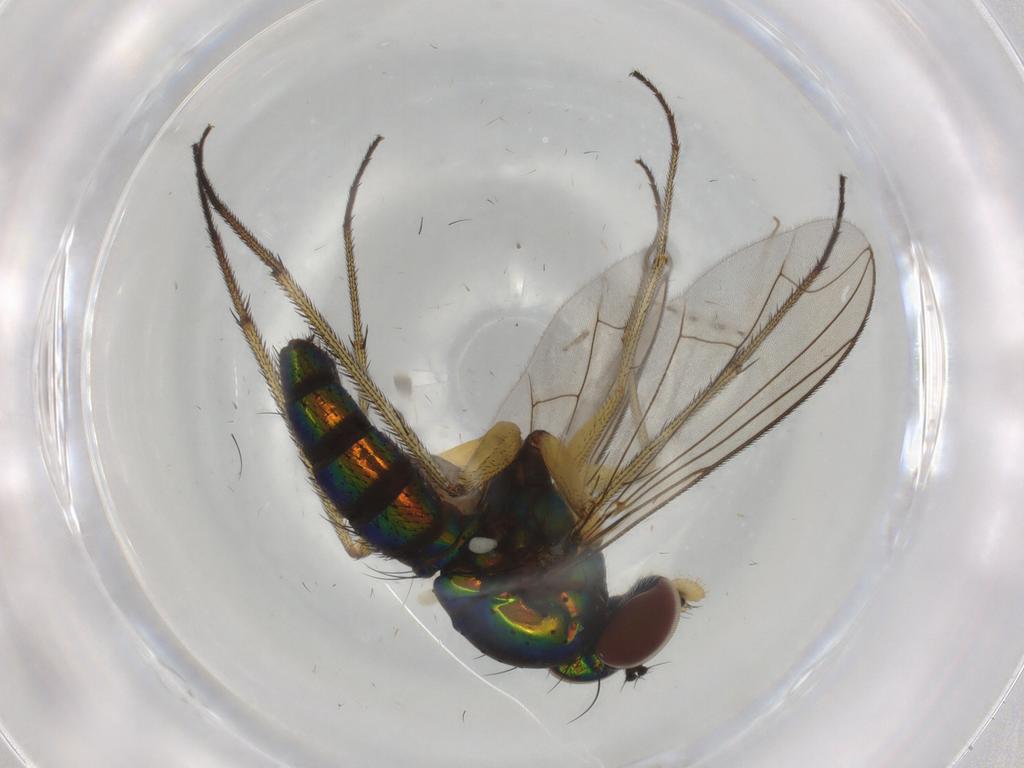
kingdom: Animalia
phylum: Arthropoda
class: Insecta
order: Diptera
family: Dolichopodidae
